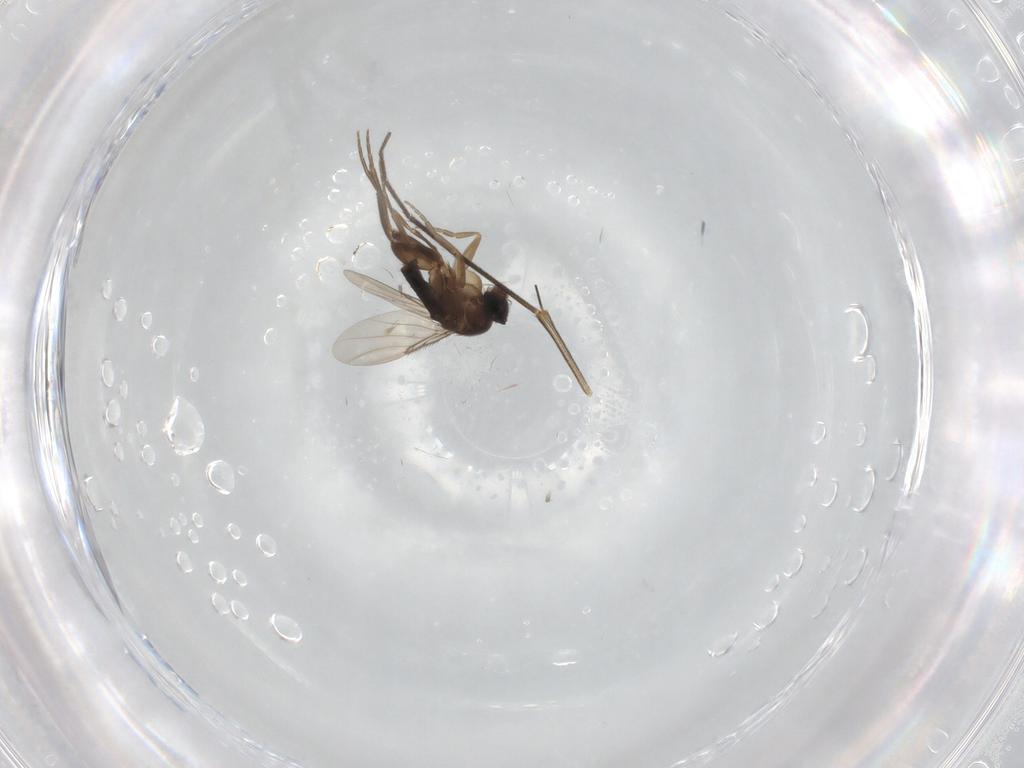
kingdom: Animalia
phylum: Arthropoda
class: Insecta
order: Diptera
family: Phoridae
